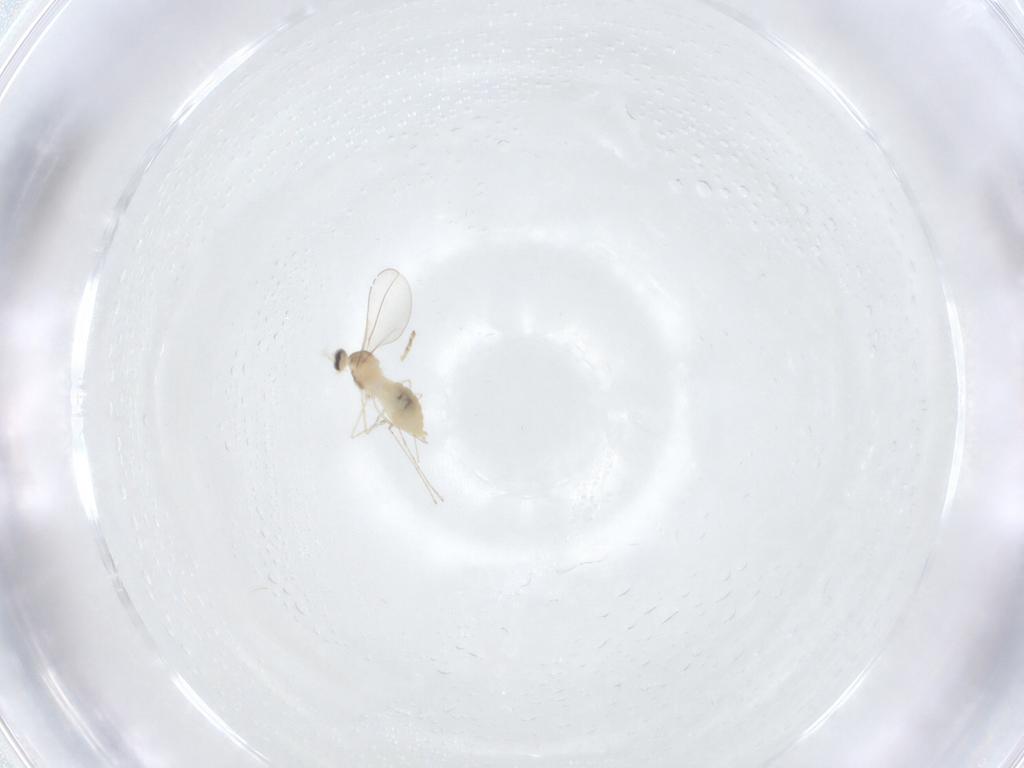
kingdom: Animalia
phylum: Arthropoda
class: Insecta
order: Diptera
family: Cecidomyiidae
